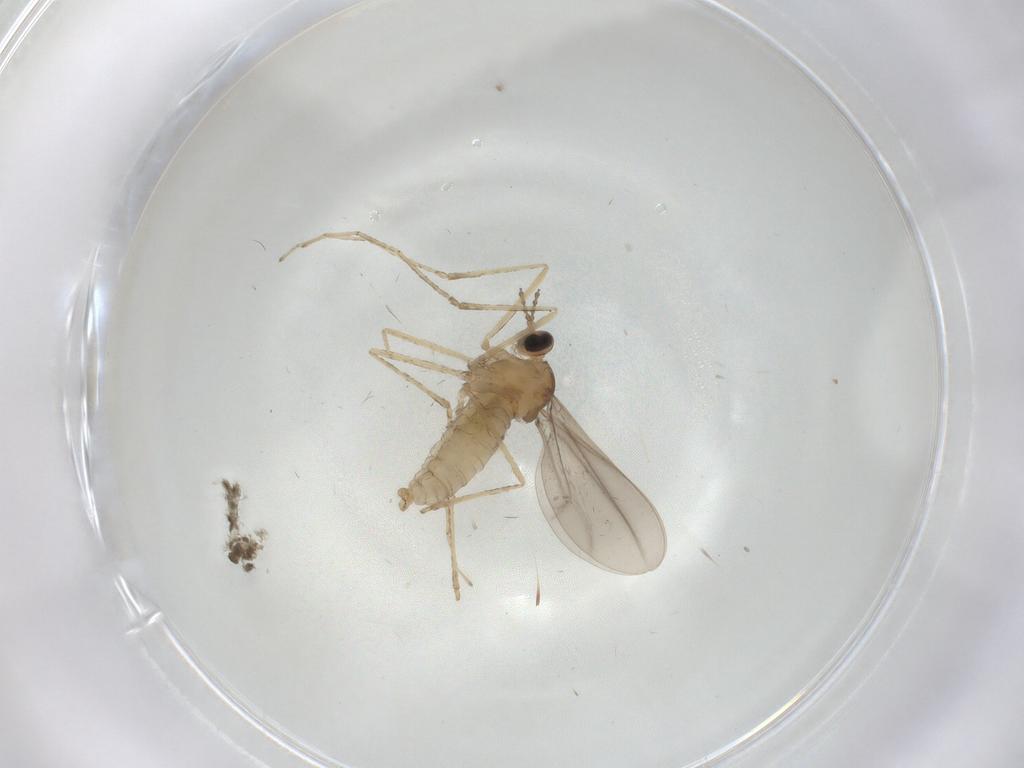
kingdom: Animalia
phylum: Arthropoda
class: Insecta
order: Diptera
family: Cecidomyiidae
